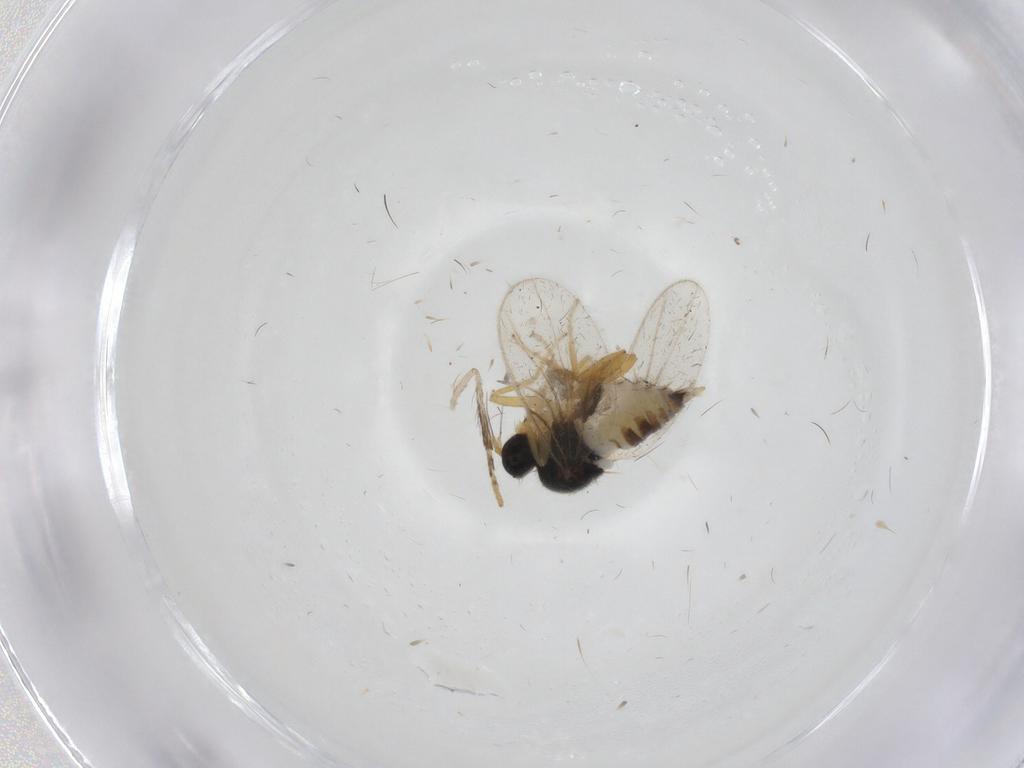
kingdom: Animalia
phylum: Arthropoda
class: Insecta
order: Diptera
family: Hybotidae
